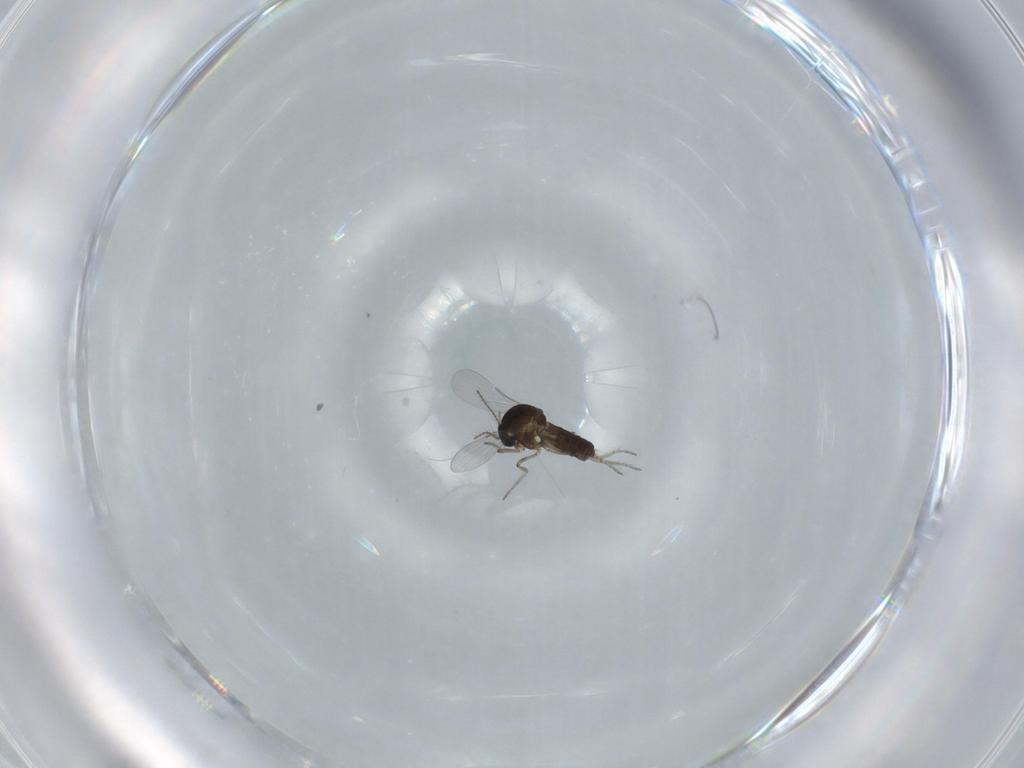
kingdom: Animalia
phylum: Arthropoda
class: Insecta
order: Diptera
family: Ceratopogonidae
